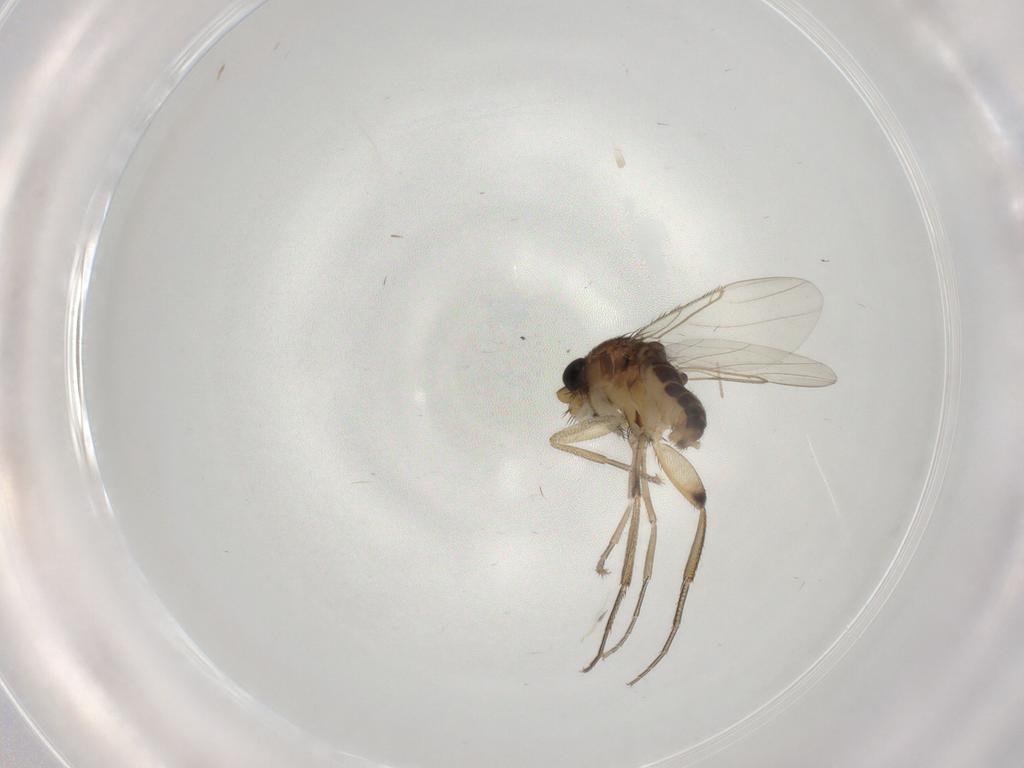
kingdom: Animalia
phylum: Arthropoda
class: Insecta
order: Diptera
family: Phoridae
